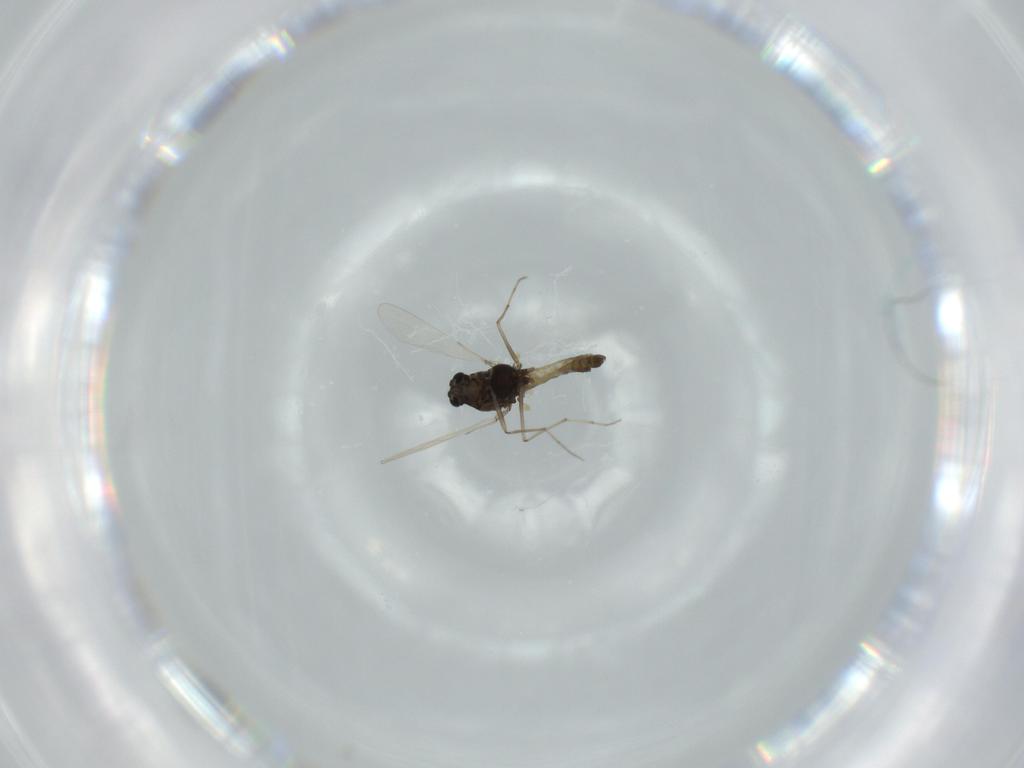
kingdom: Animalia
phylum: Arthropoda
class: Insecta
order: Diptera
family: Chironomidae
